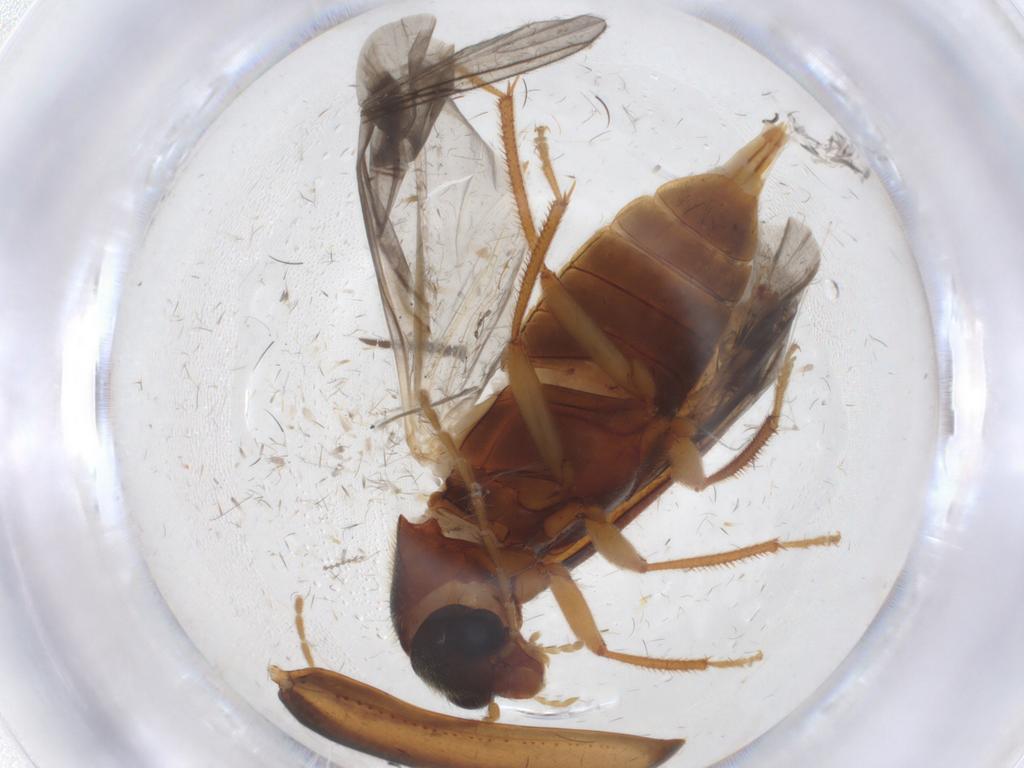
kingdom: Animalia
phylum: Arthropoda
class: Insecta
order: Coleoptera
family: Ptilodactylidae
